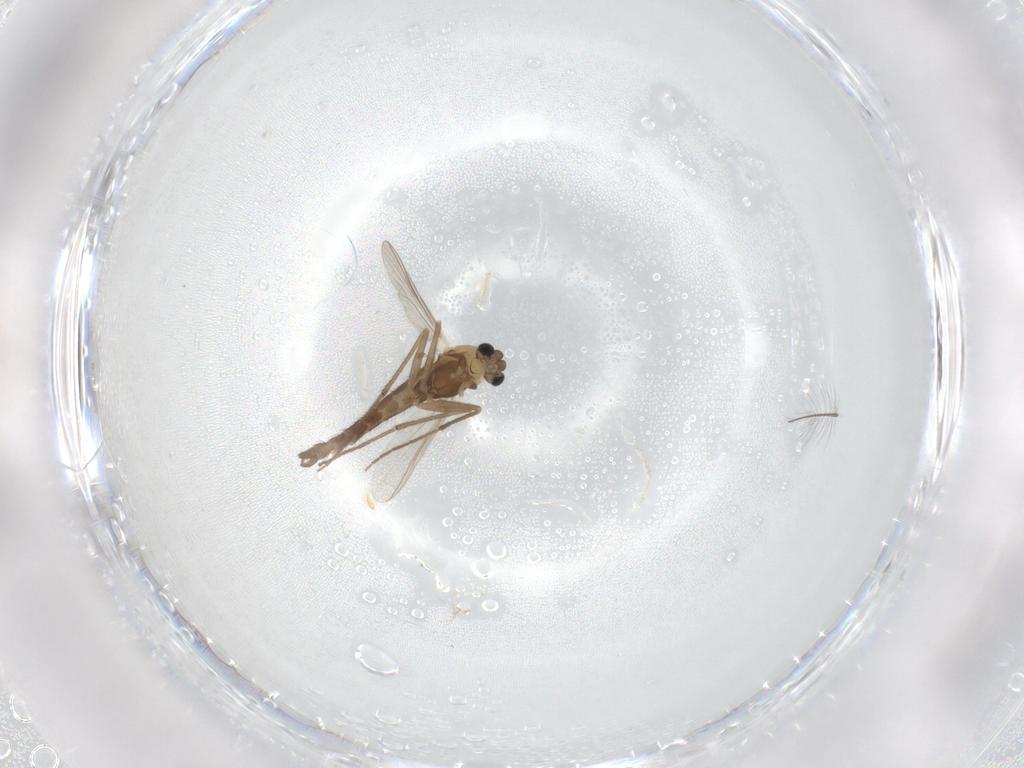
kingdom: Animalia
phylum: Arthropoda
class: Insecta
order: Diptera
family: Chironomidae
